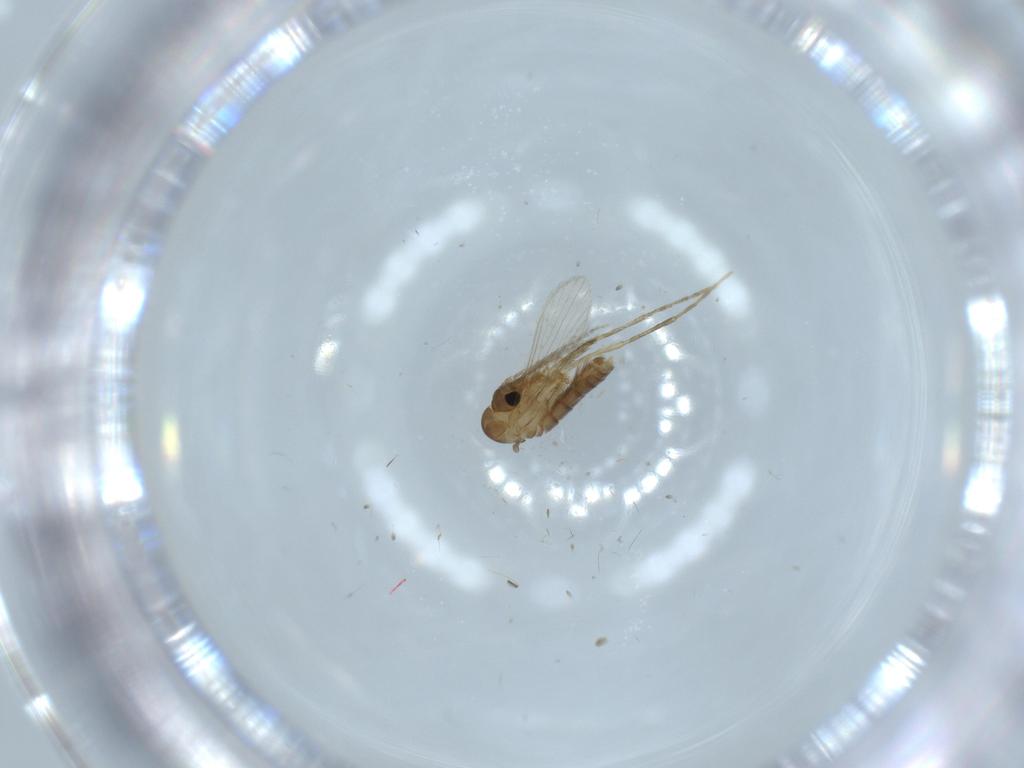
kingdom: Animalia
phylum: Arthropoda
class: Insecta
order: Diptera
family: Psychodidae
